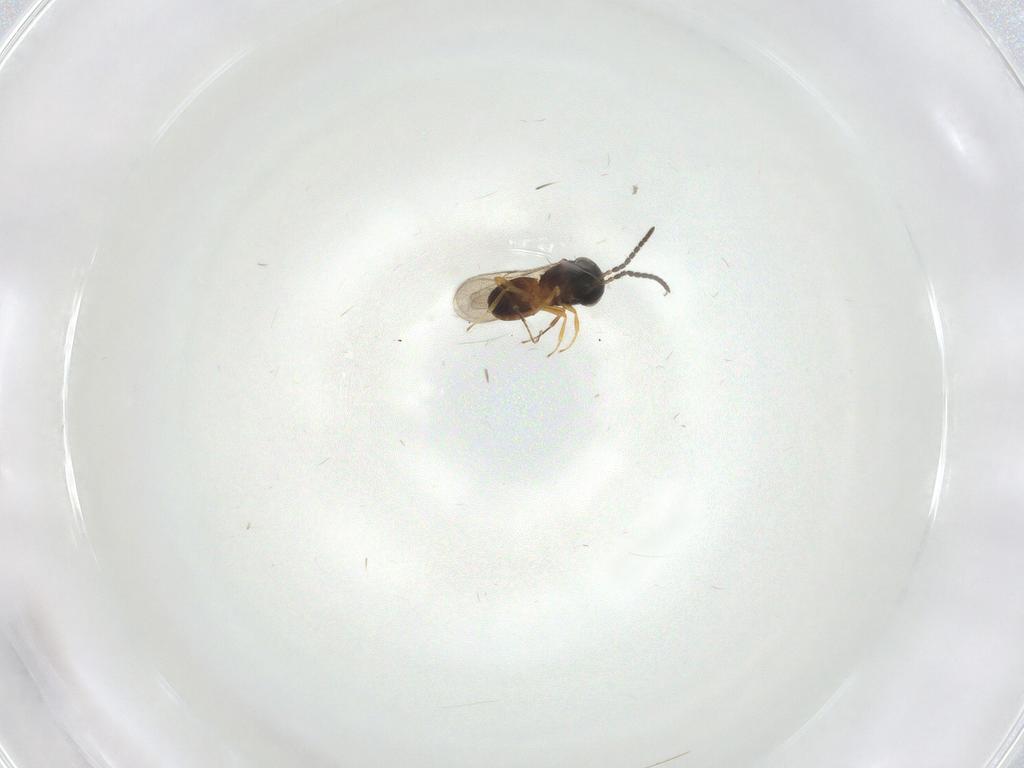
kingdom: Animalia
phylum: Arthropoda
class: Insecta
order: Hymenoptera
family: Scelionidae
